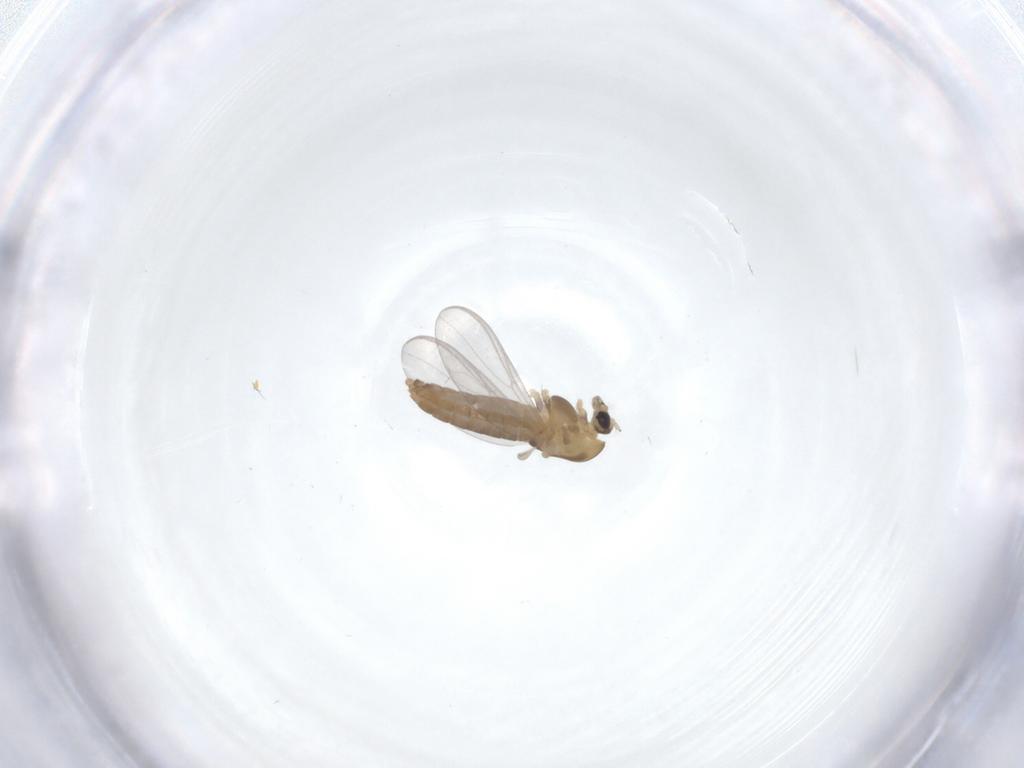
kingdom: Animalia
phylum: Arthropoda
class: Insecta
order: Diptera
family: Chironomidae
